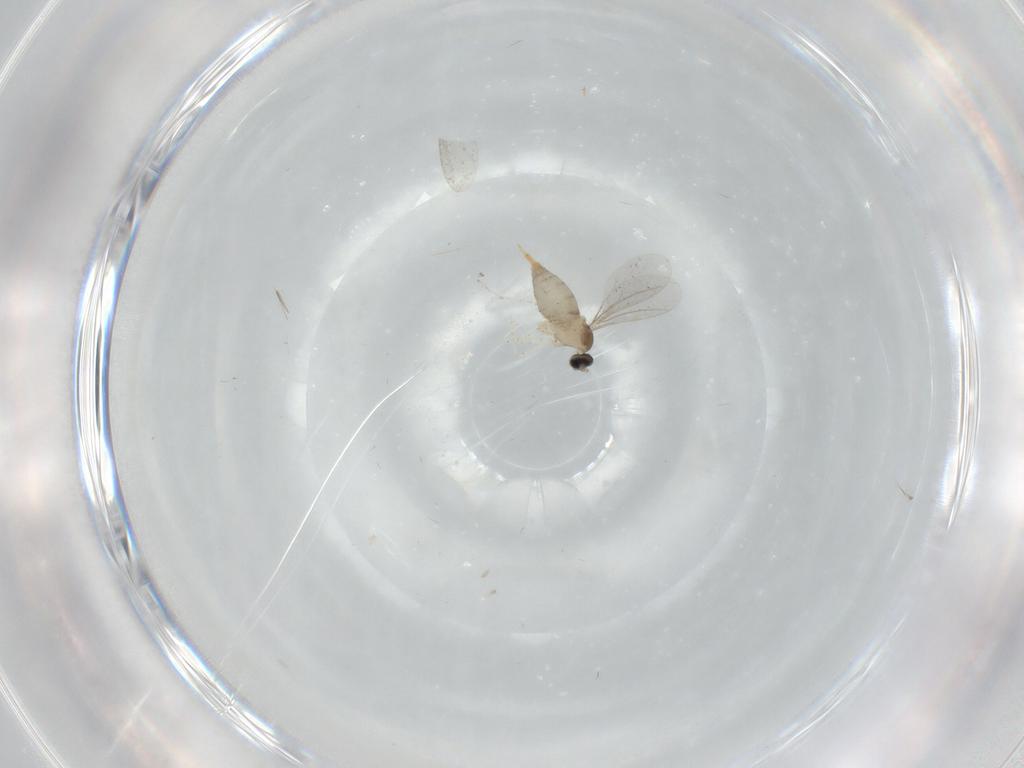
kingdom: Animalia
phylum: Arthropoda
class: Insecta
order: Diptera
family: Cecidomyiidae
